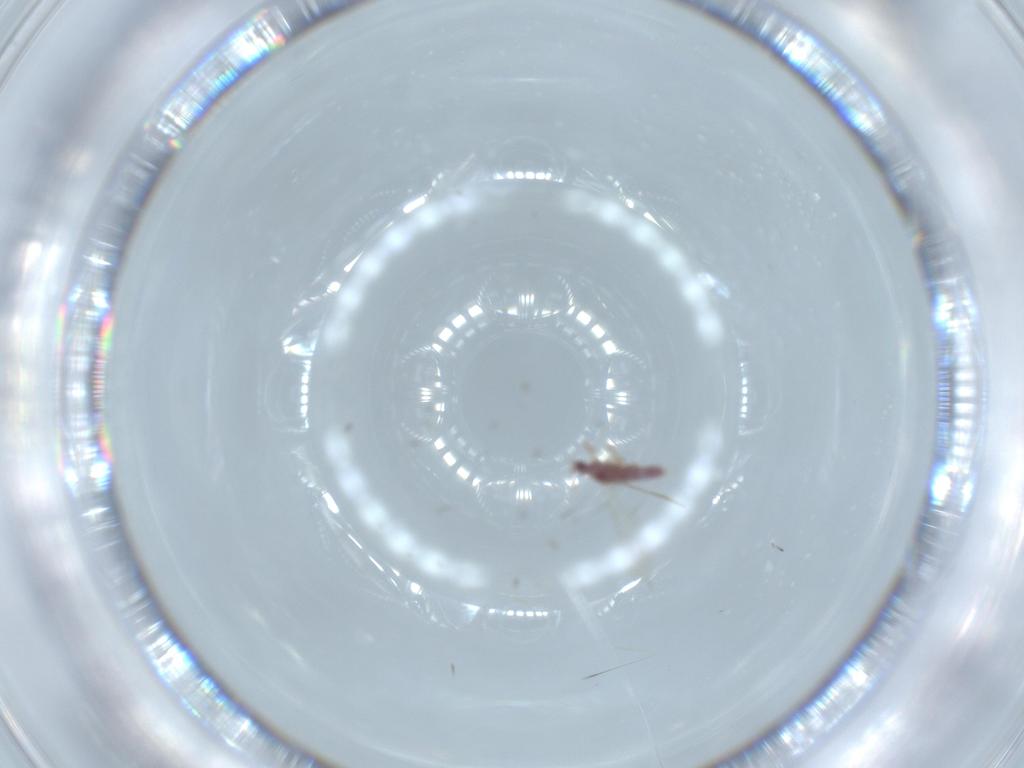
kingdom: Animalia
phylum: Arthropoda
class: Insecta
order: Hemiptera
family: Pseudococcidae
